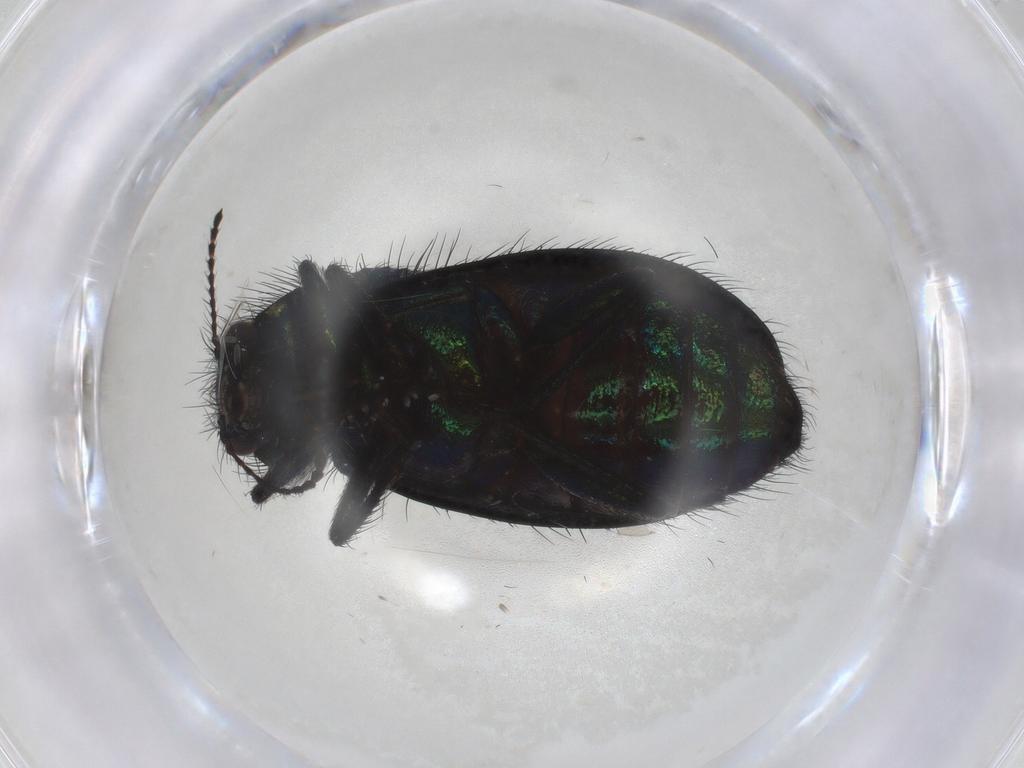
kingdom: Animalia
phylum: Arthropoda
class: Insecta
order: Coleoptera
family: Melyridae
